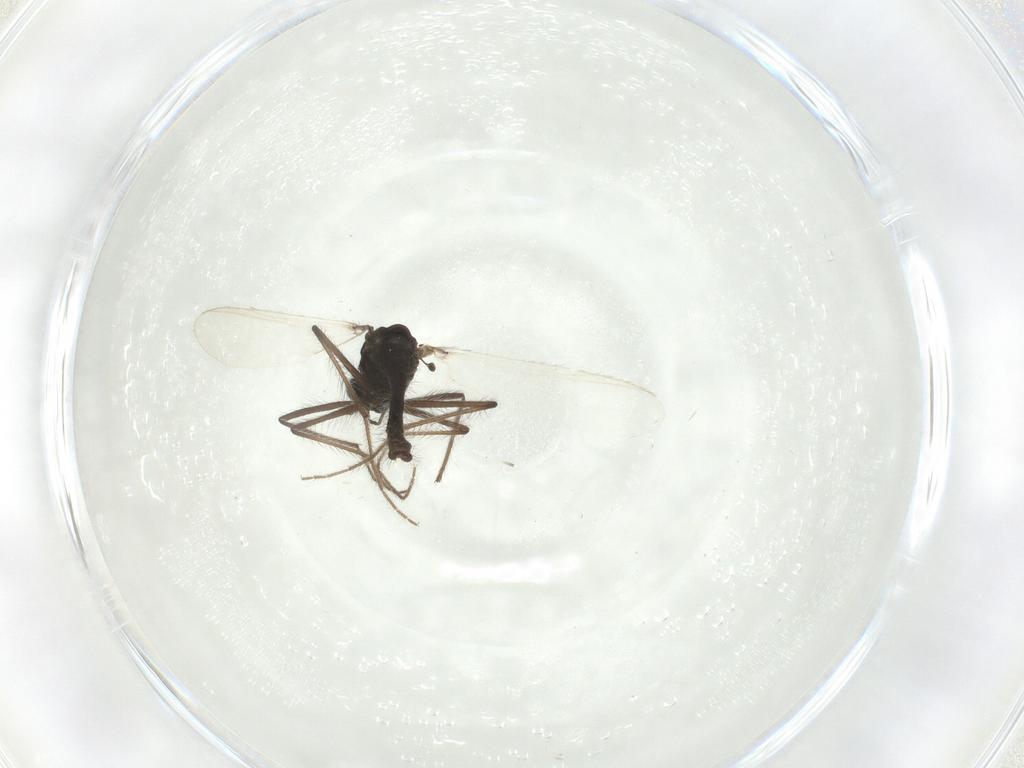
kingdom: Animalia
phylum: Arthropoda
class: Insecta
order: Diptera
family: Chironomidae
